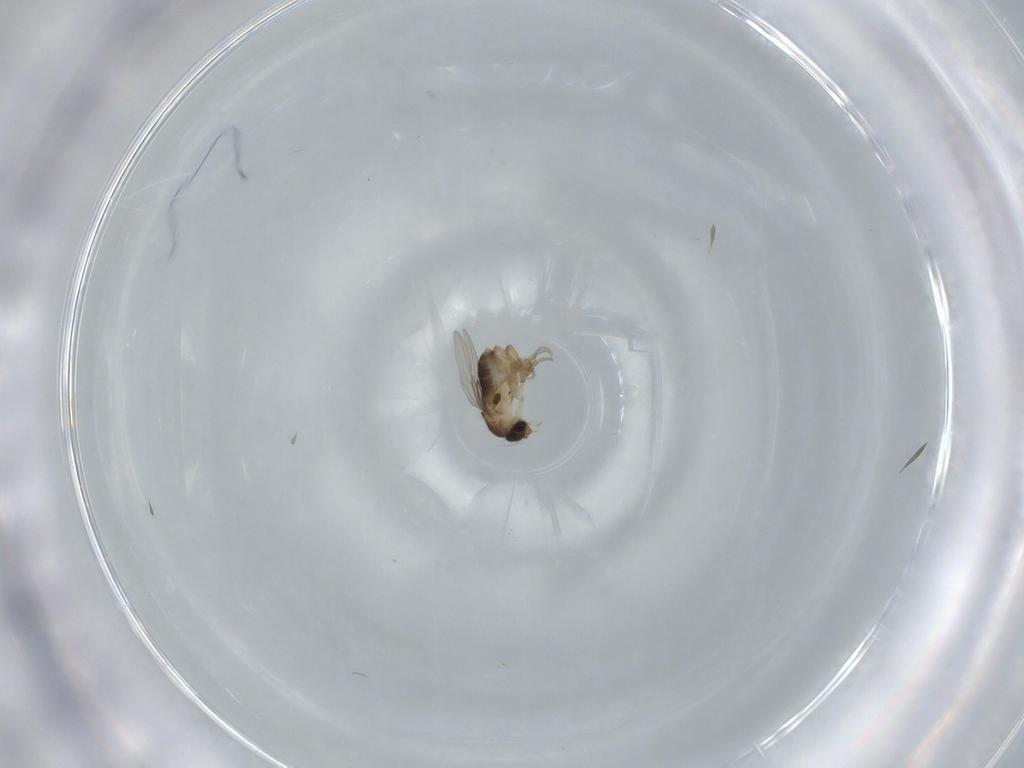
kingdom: Animalia
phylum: Arthropoda
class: Insecta
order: Diptera
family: Phoridae
